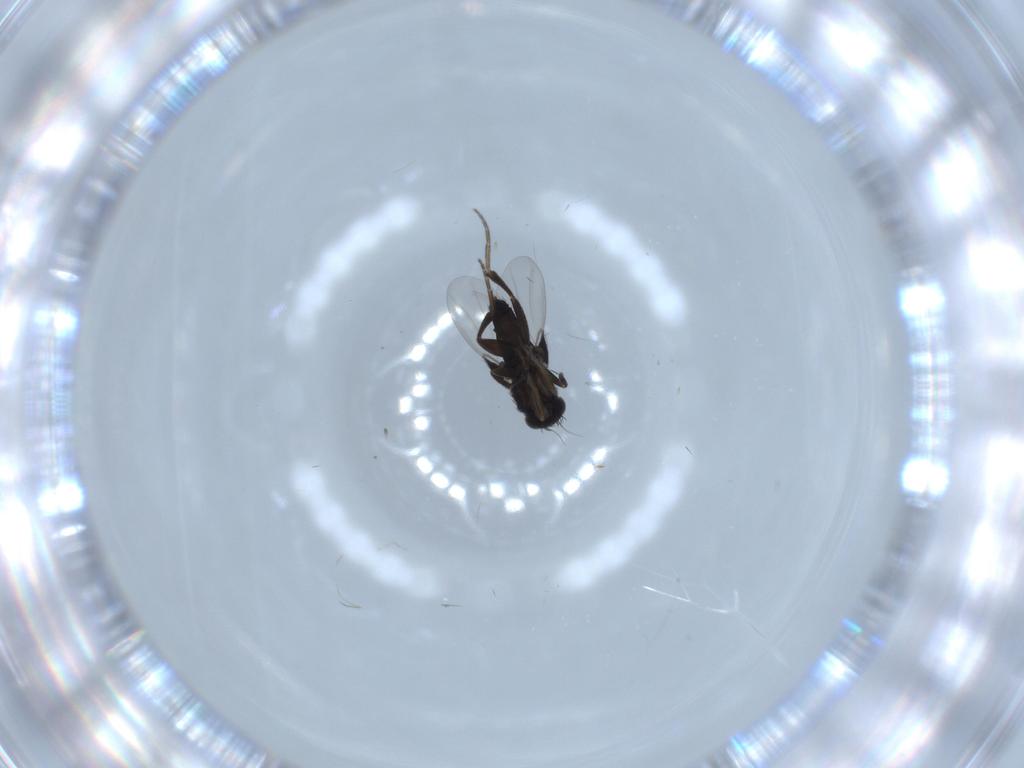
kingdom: Animalia
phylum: Arthropoda
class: Insecta
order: Diptera
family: Phoridae
